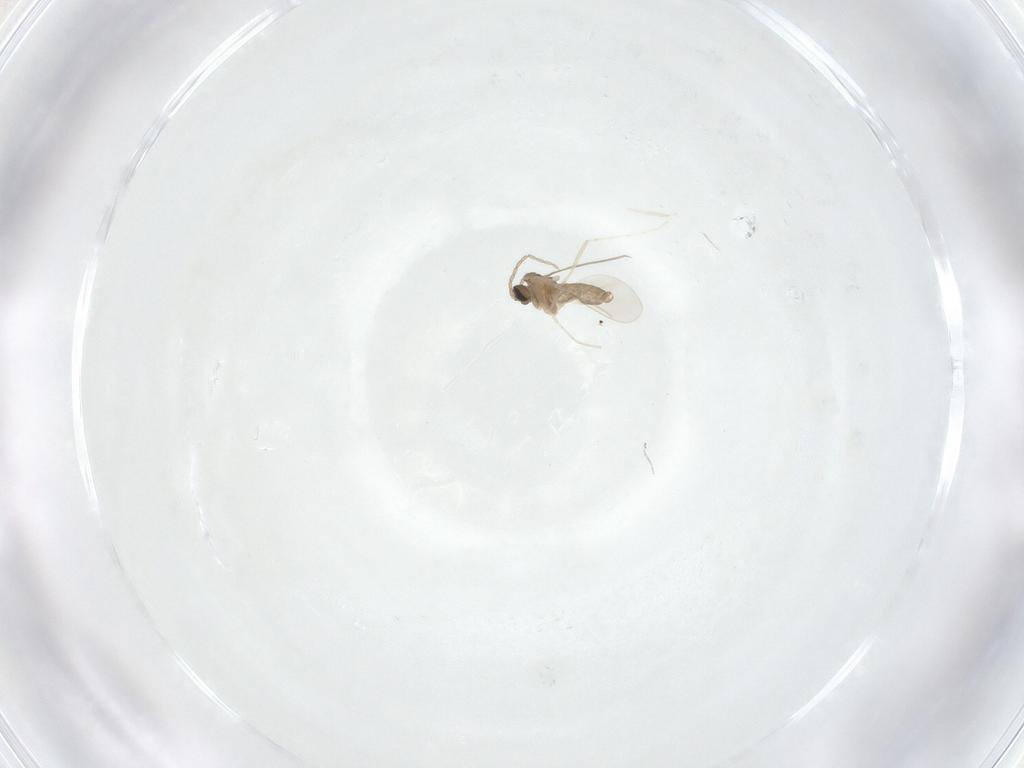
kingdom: Animalia
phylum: Arthropoda
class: Insecta
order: Diptera
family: Cecidomyiidae
